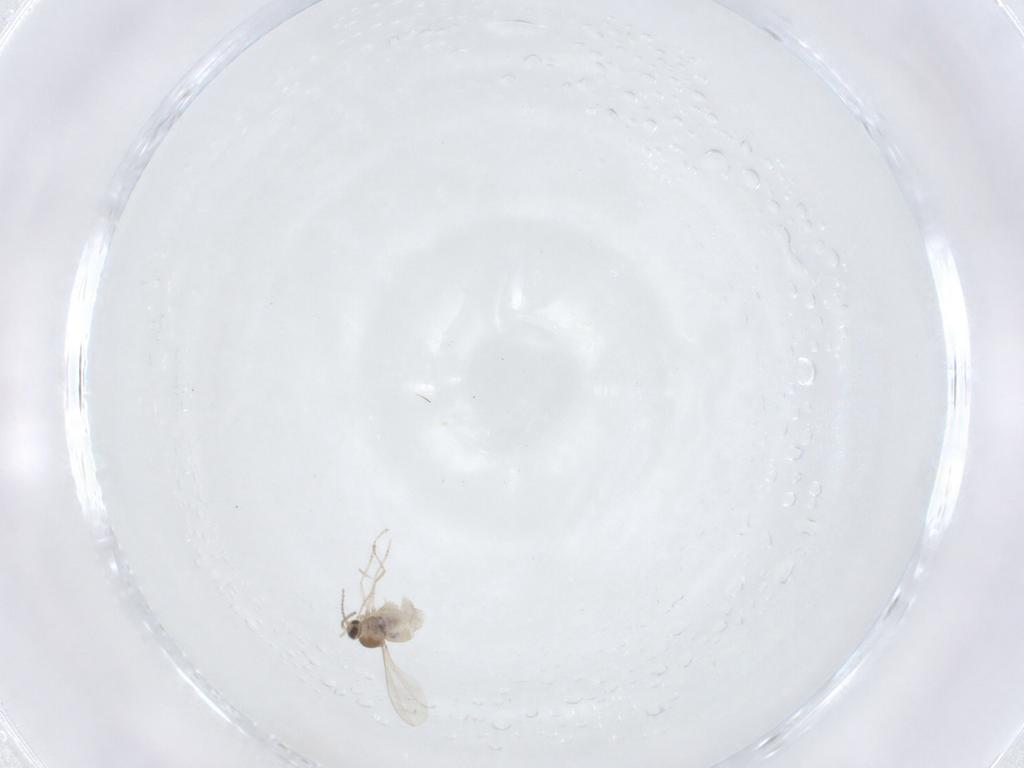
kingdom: Animalia
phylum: Arthropoda
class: Insecta
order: Diptera
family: Cecidomyiidae
